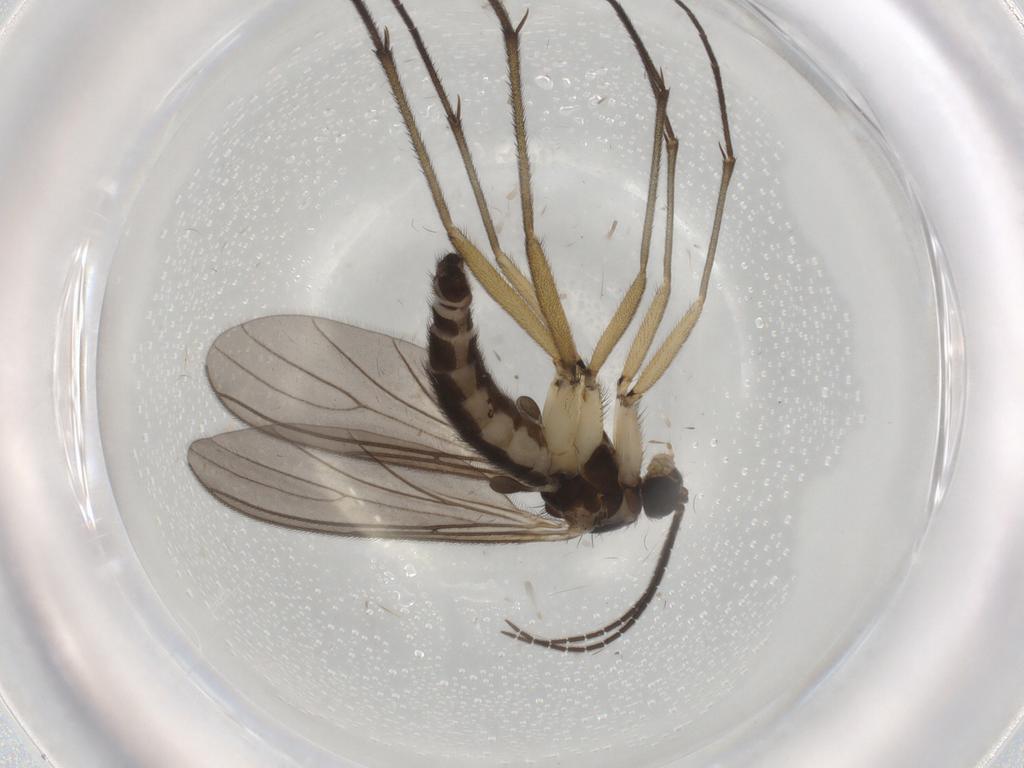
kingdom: Animalia
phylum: Arthropoda
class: Insecta
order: Diptera
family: Sciaridae
